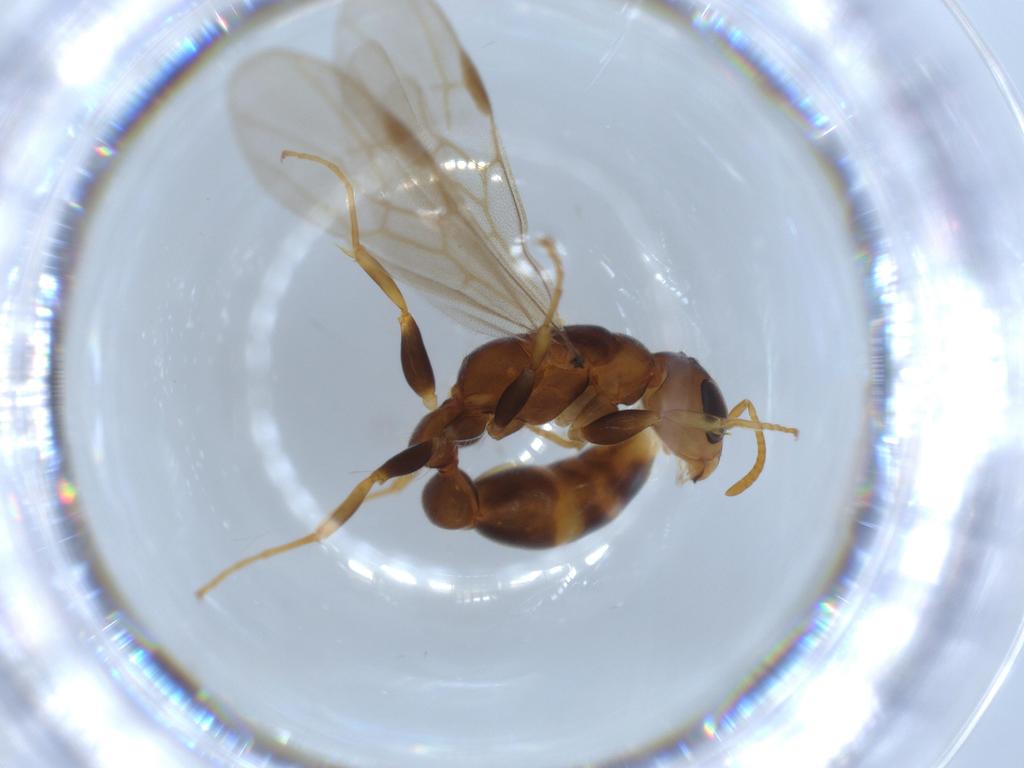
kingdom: Animalia
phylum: Arthropoda
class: Insecta
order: Hymenoptera
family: Formicidae
